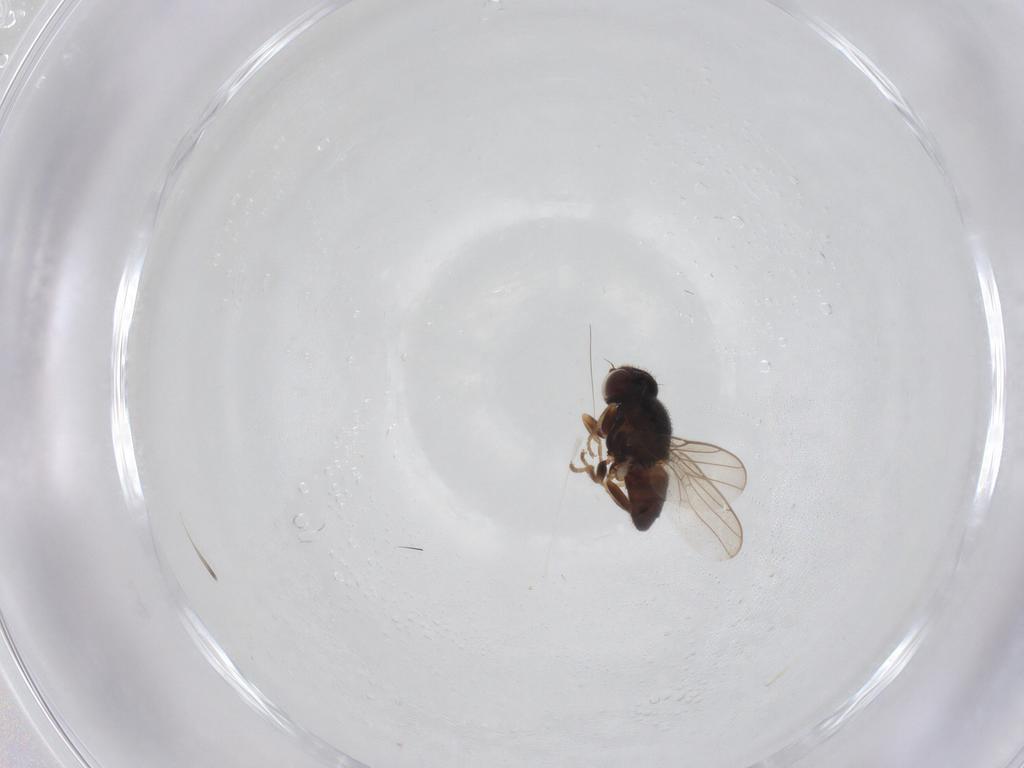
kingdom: Animalia
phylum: Arthropoda
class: Insecta
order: Diptera
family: Chloropidae
